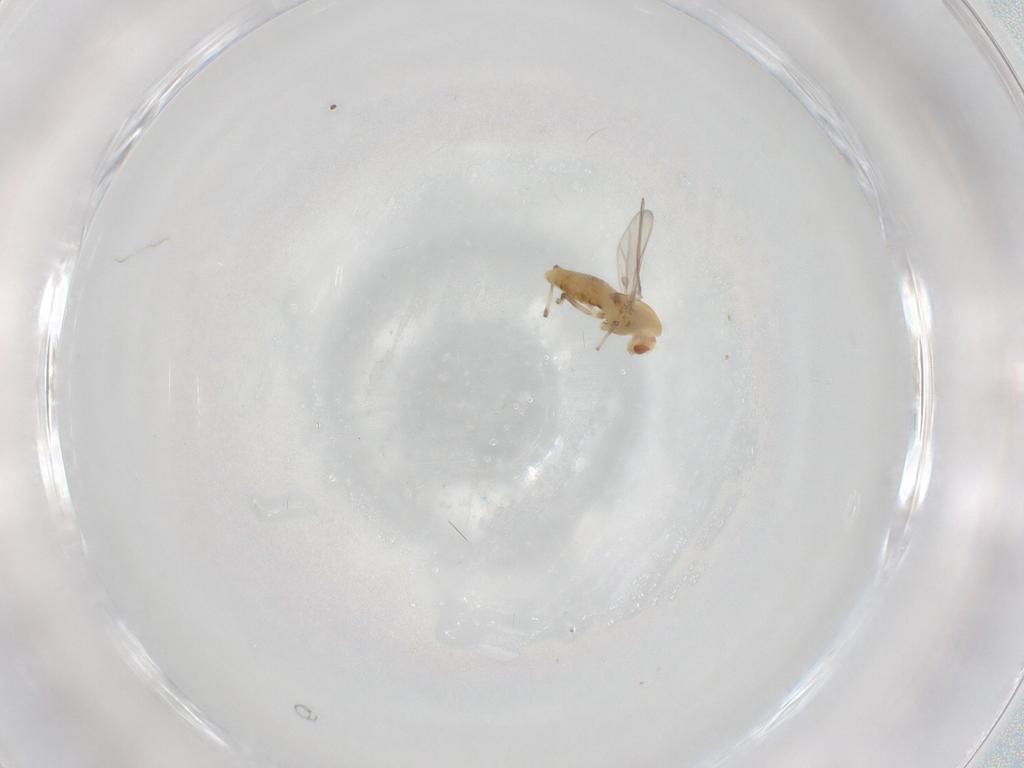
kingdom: Animalia
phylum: Arthropoda
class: Insecta
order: Diptera
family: Chironomidae
